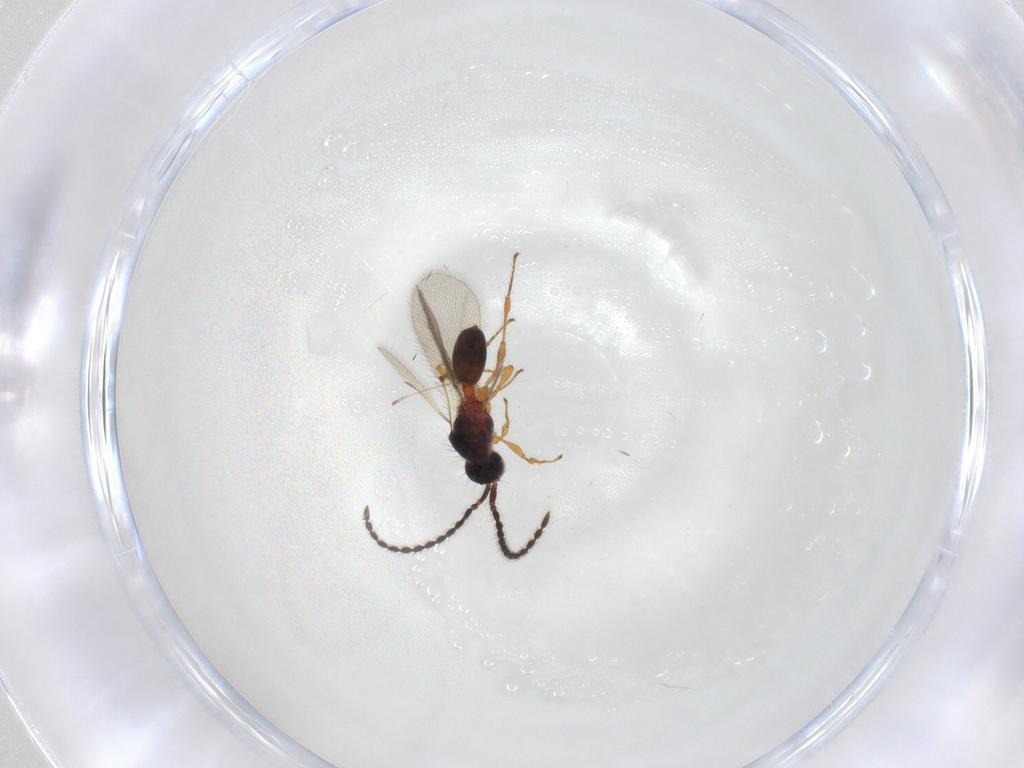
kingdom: Animalia
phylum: Arthropoda
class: Insecta
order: Hymenoptera
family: Diapriidae
